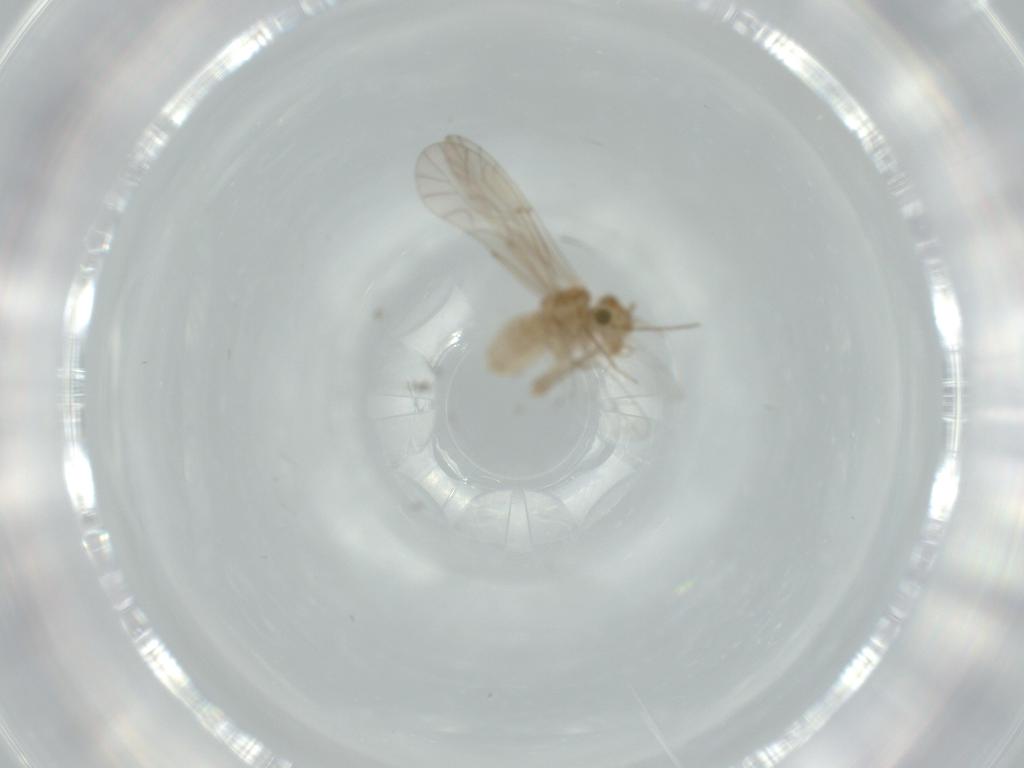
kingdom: Animalia
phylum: Arthropoda
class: Insecta
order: Psocodea
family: Lachesillidae
